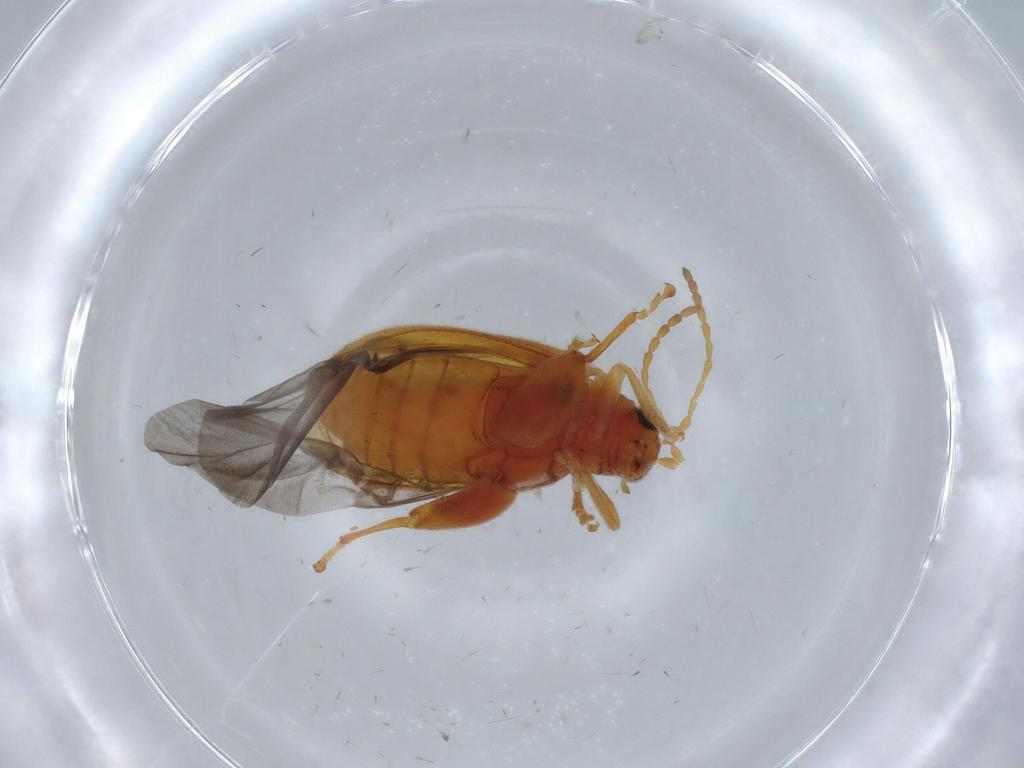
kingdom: Animalia
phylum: Arthropoda
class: Insecta
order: Coleoptera
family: Chrysomelidae
